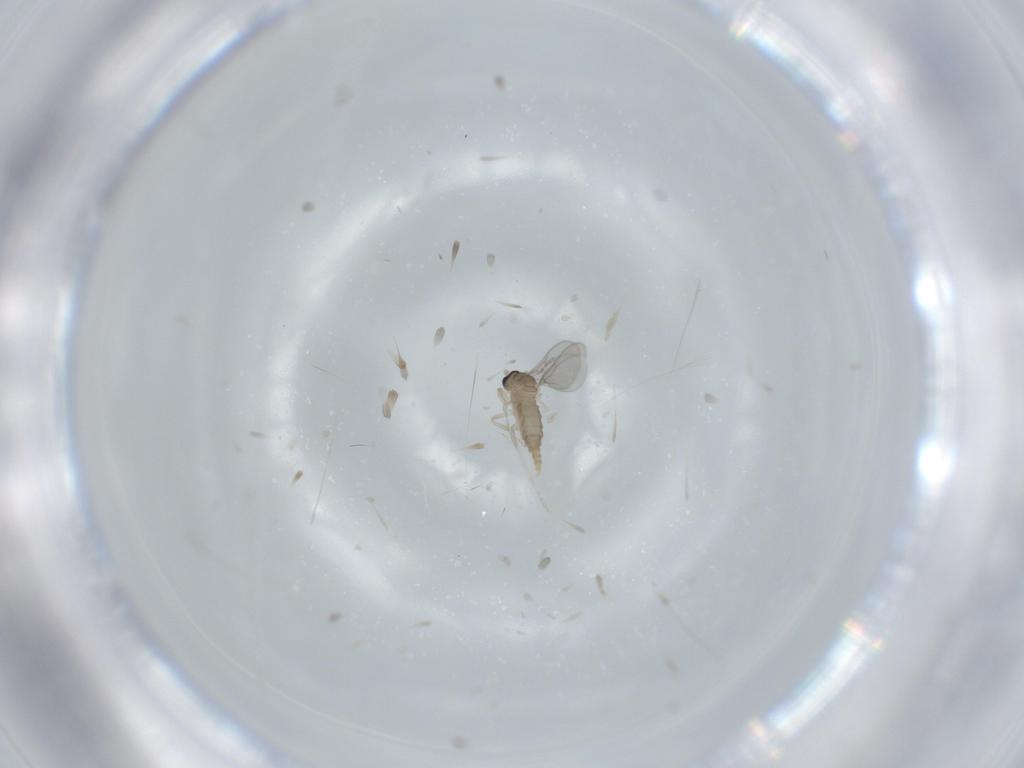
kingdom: Animalia
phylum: Arthropoda
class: Insecta
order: Diptera
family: Cecidomyiidae
